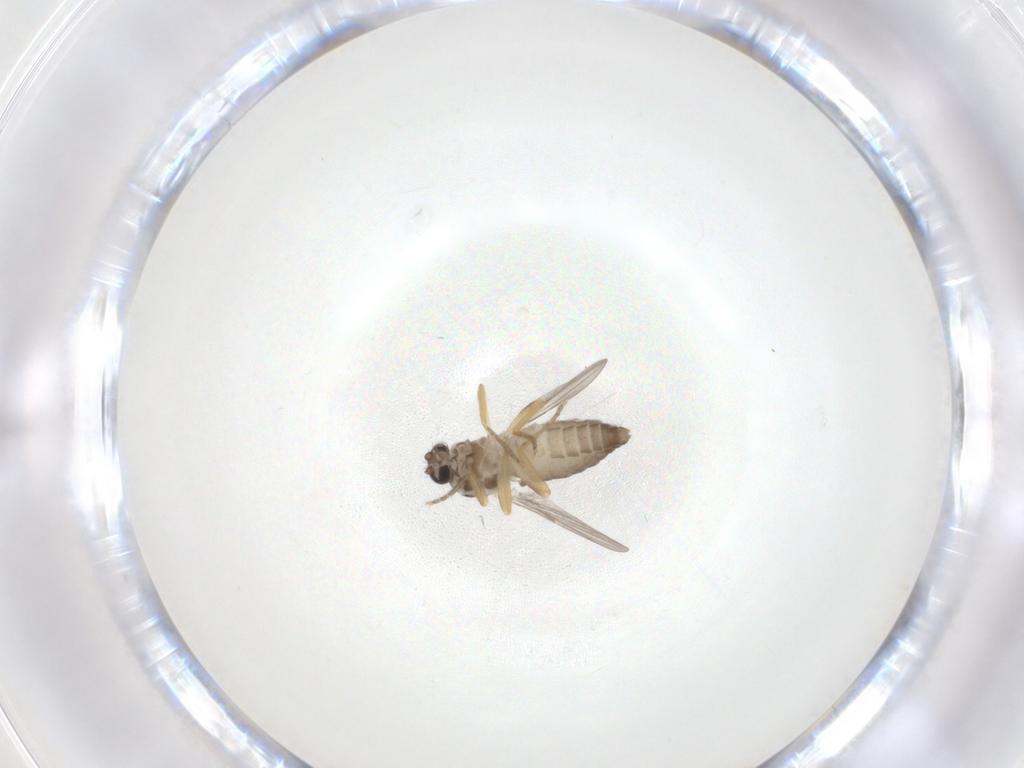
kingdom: Animalia
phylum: Arthropoda
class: Insecta
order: Diptera
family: Ceratopogonidae
